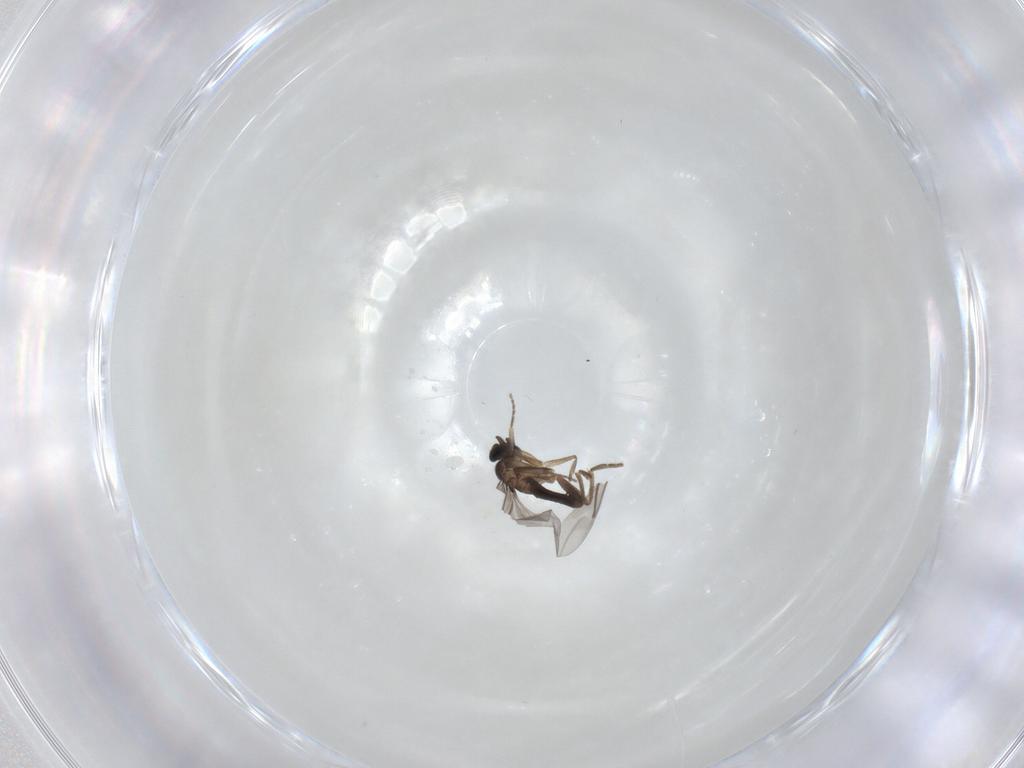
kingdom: Animalia
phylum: Arthropoda
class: Insecta
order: Diptera
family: Phoridae
